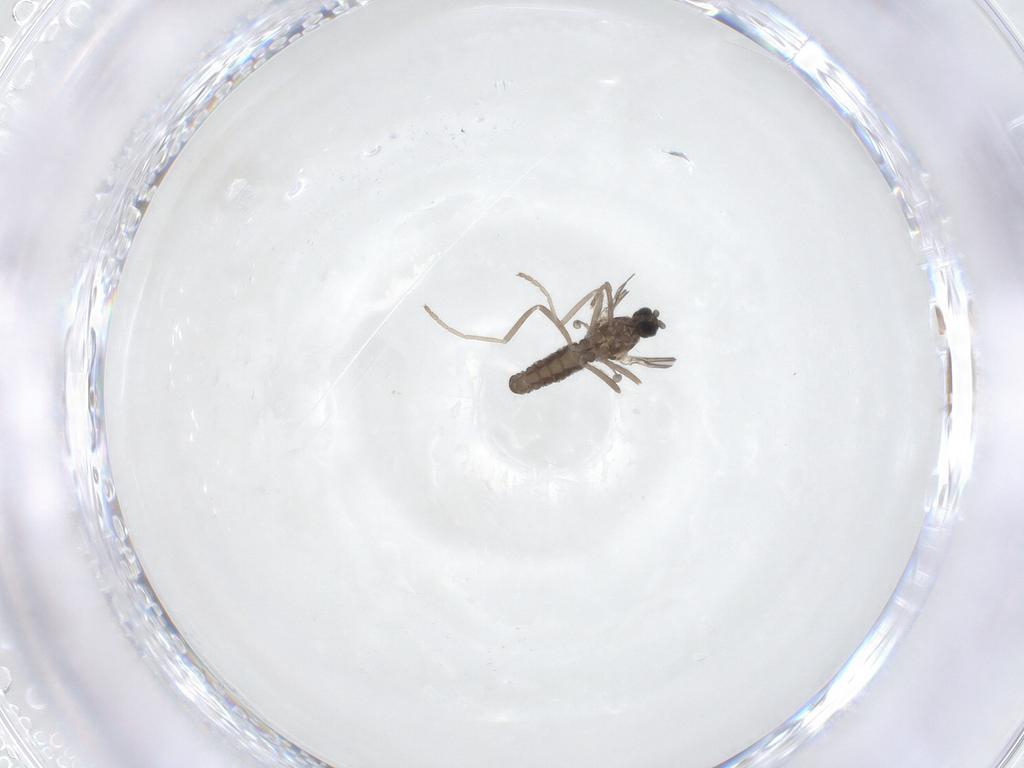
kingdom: Animalia
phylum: Arthropoda
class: Insecta
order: Diptera
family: Cecidomyiidae
